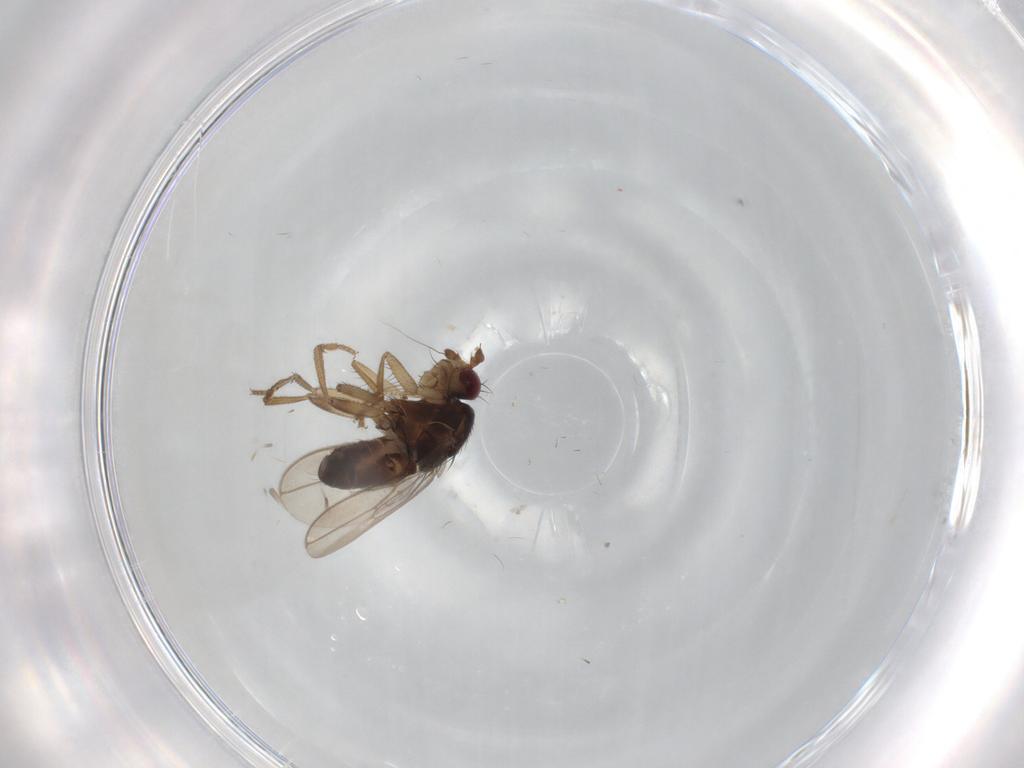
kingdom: Animalia
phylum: Arthropoda
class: Insecta
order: Diptera
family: Sphaeroceridae
